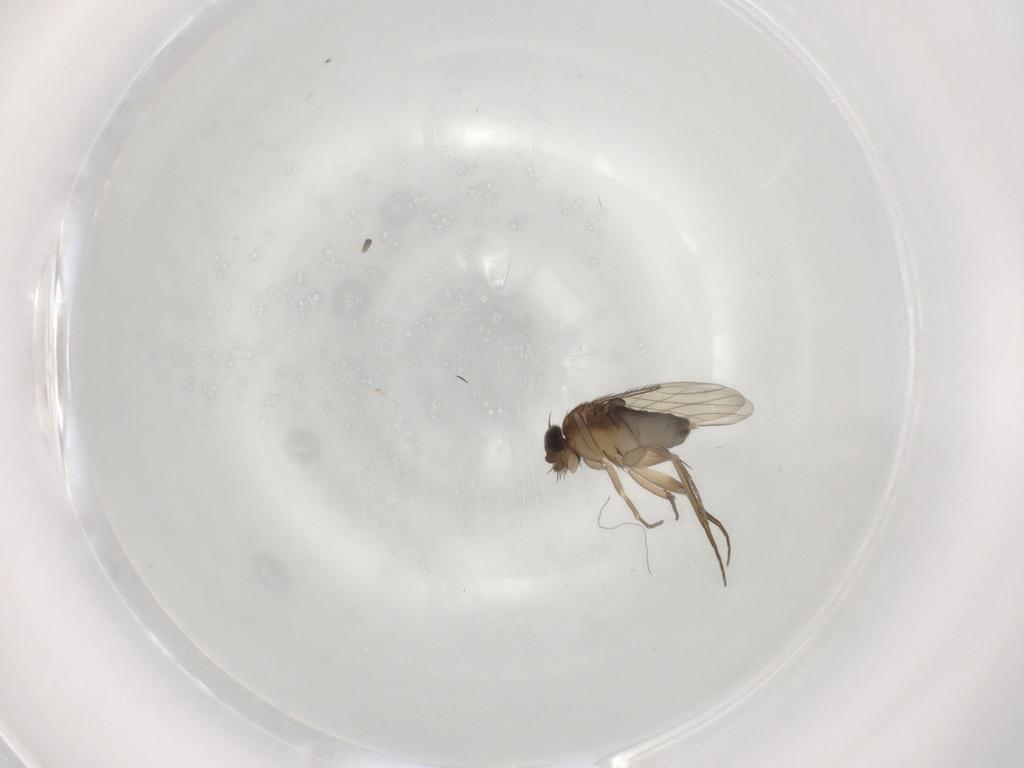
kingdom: Animalia
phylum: Arthropoda
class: Insecta
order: Diptera
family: Phoridae
